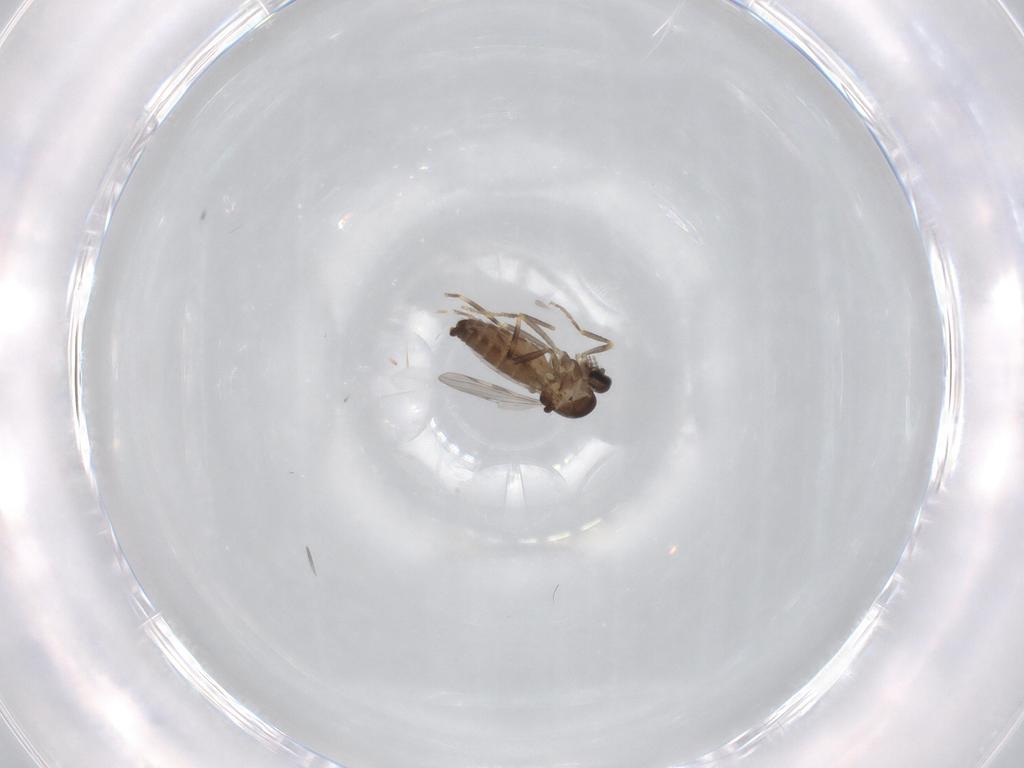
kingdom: Animalia
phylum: Arthropoda
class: Insecta
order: Diptera
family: Ceratopogonidae
